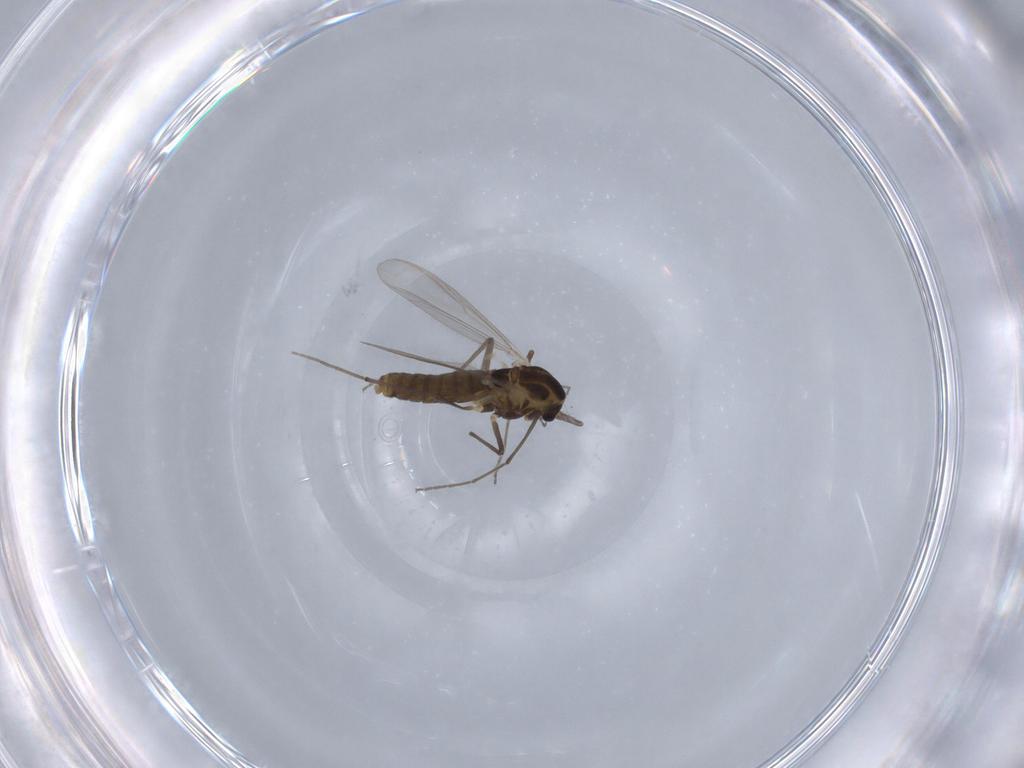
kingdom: Animalia
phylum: Arthropoda
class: Insecta
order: Diptera
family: Chironomidae
